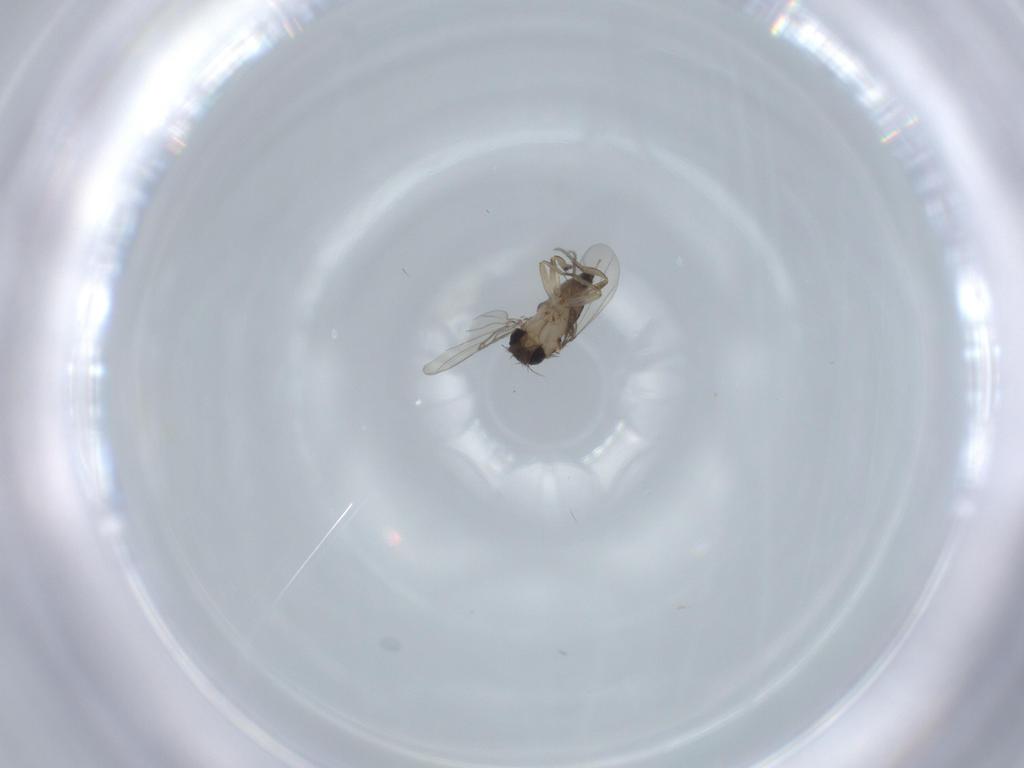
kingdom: Animalia
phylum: Arthropoda
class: Insecta
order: Diptera
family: Phoridae
